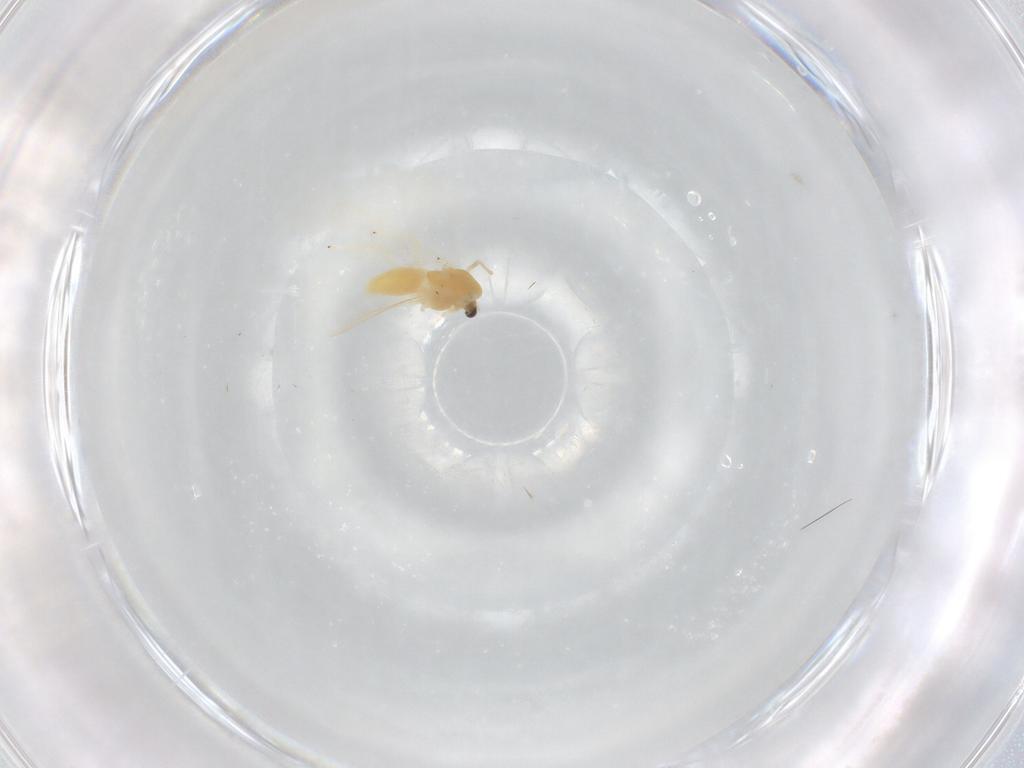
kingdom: Animalia
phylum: Arthropoda
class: Insecta
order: Diptera
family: Chironomidae
